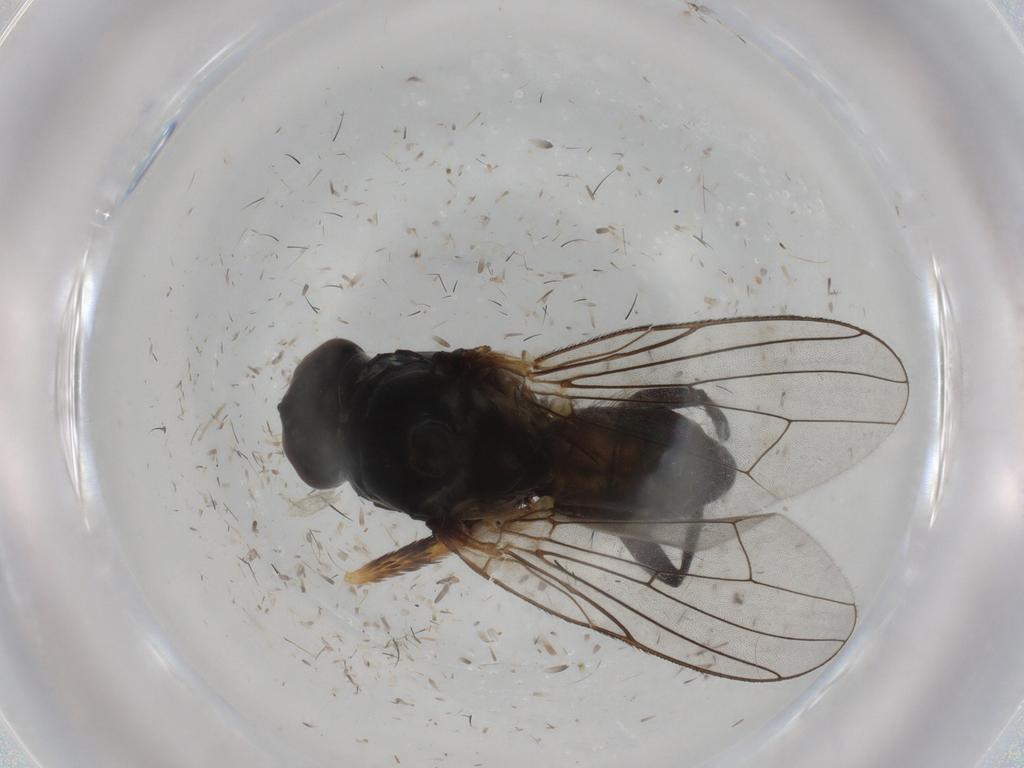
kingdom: Animalia
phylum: Arthropoda
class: Insecta
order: Diptera
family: Anthomyiidae
